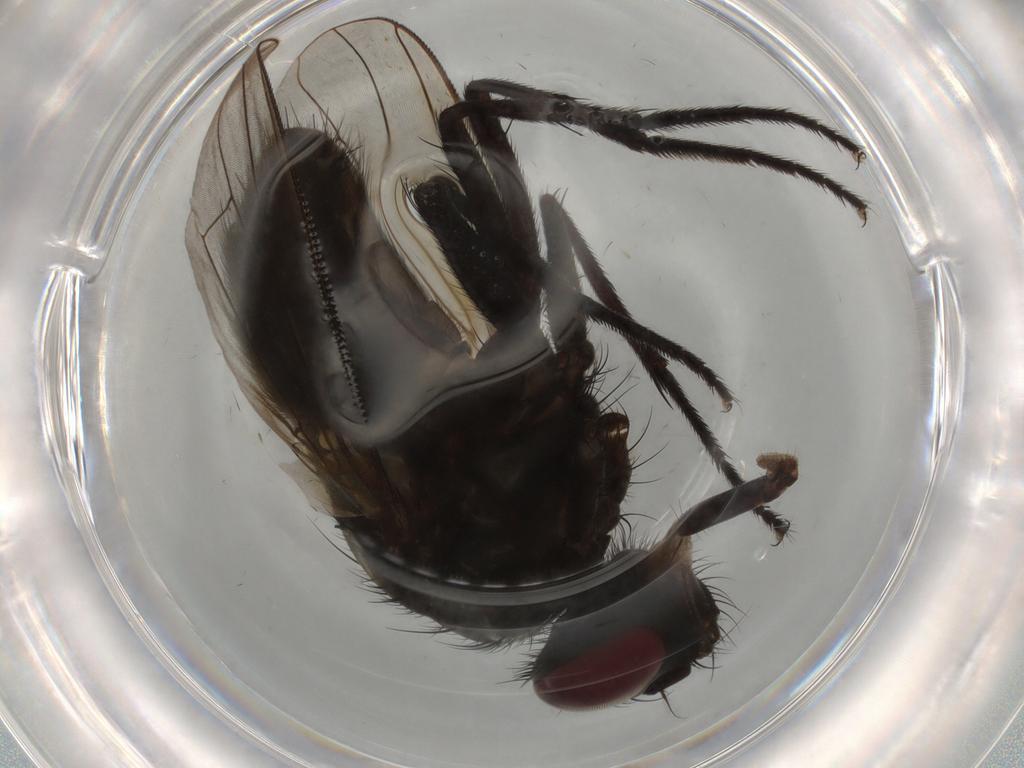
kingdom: Animalia
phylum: Arthropoda
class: Insecta
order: Diptera
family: Muscidae
